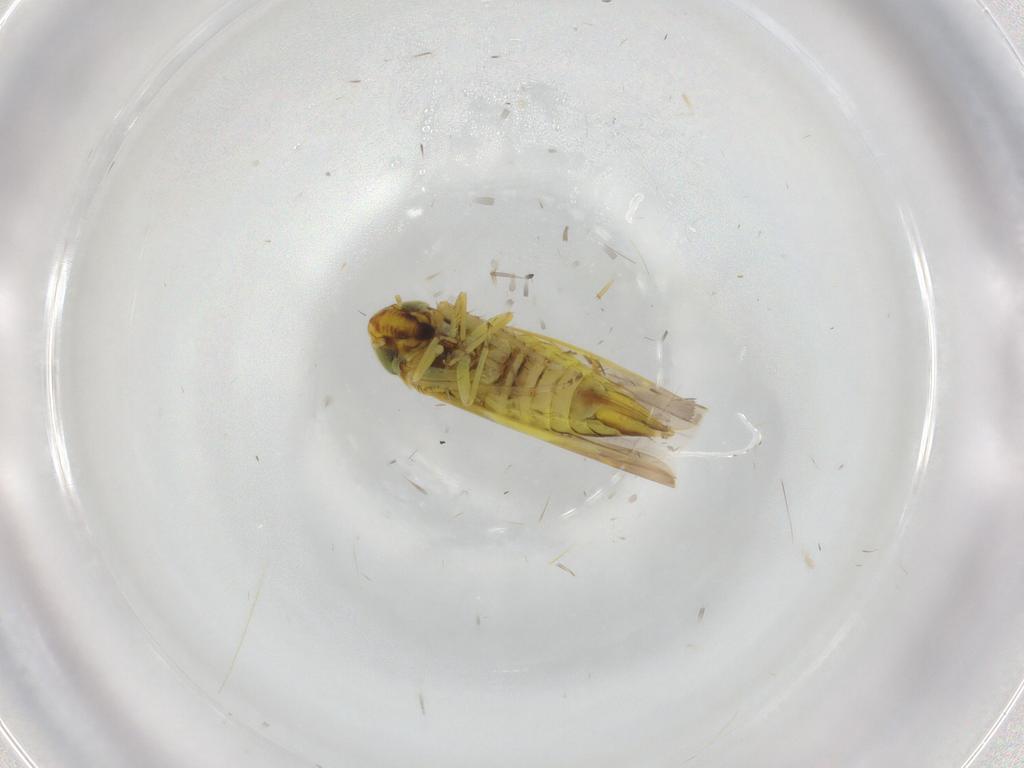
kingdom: Animalia
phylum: Arthropoda
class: Insecta
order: Hemiptera
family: Cicadellidae
